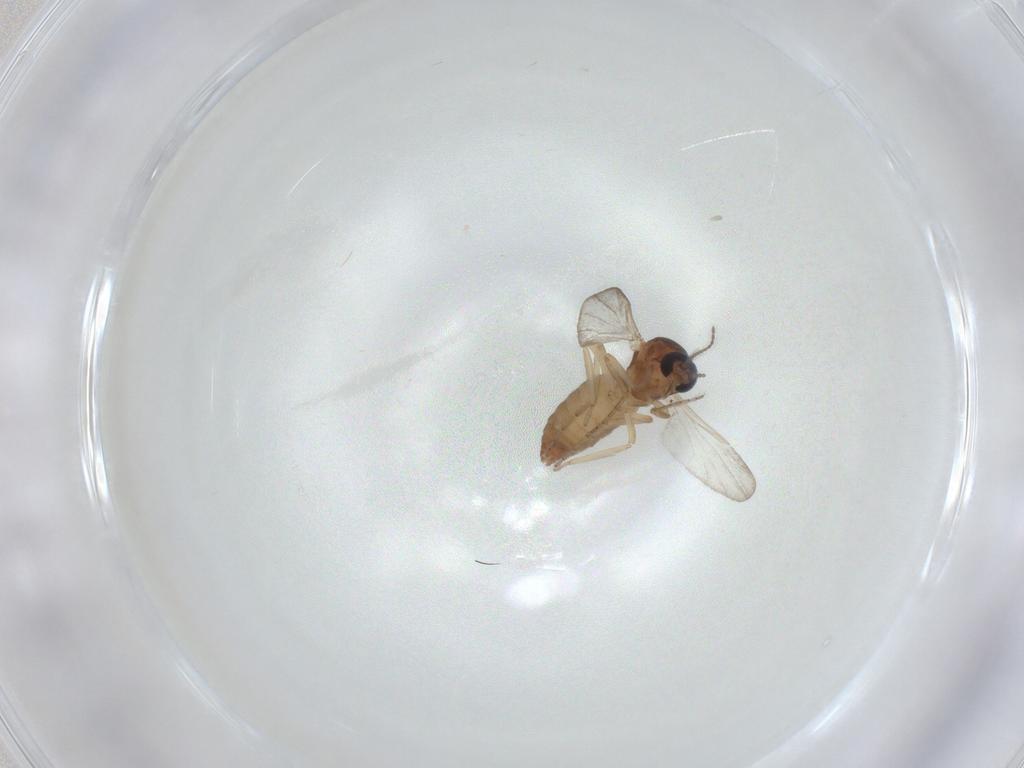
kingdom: Animalia
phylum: Arthropoda
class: Insecta
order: Diptera
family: Ceratopogonidae
